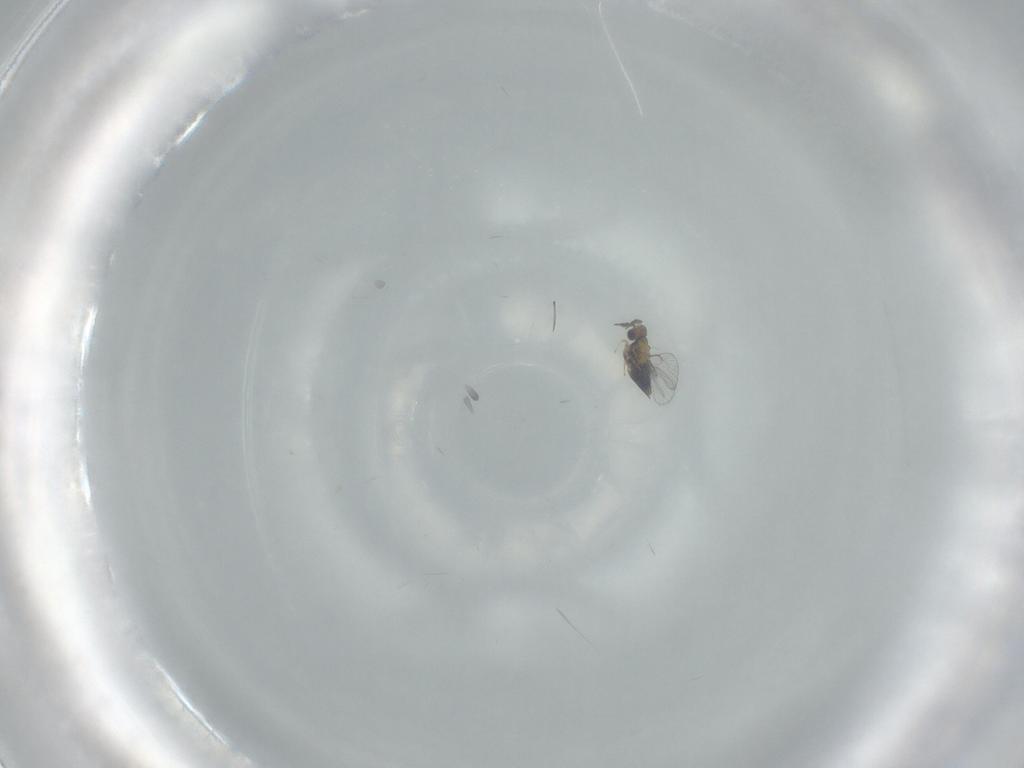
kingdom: Animalia
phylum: Arthropoda
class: Insecta
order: Hymenoptera
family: Trichogrammatidae
